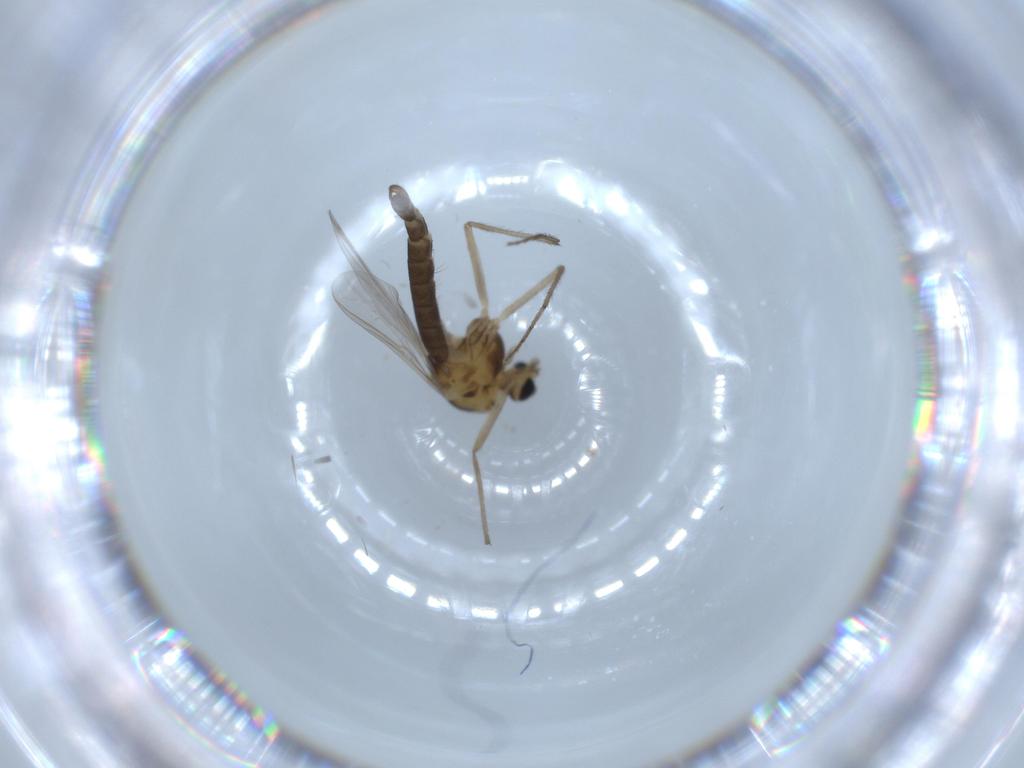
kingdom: Animalia
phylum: Arthropoda
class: Insecta
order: Diptera
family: Chironomidae
